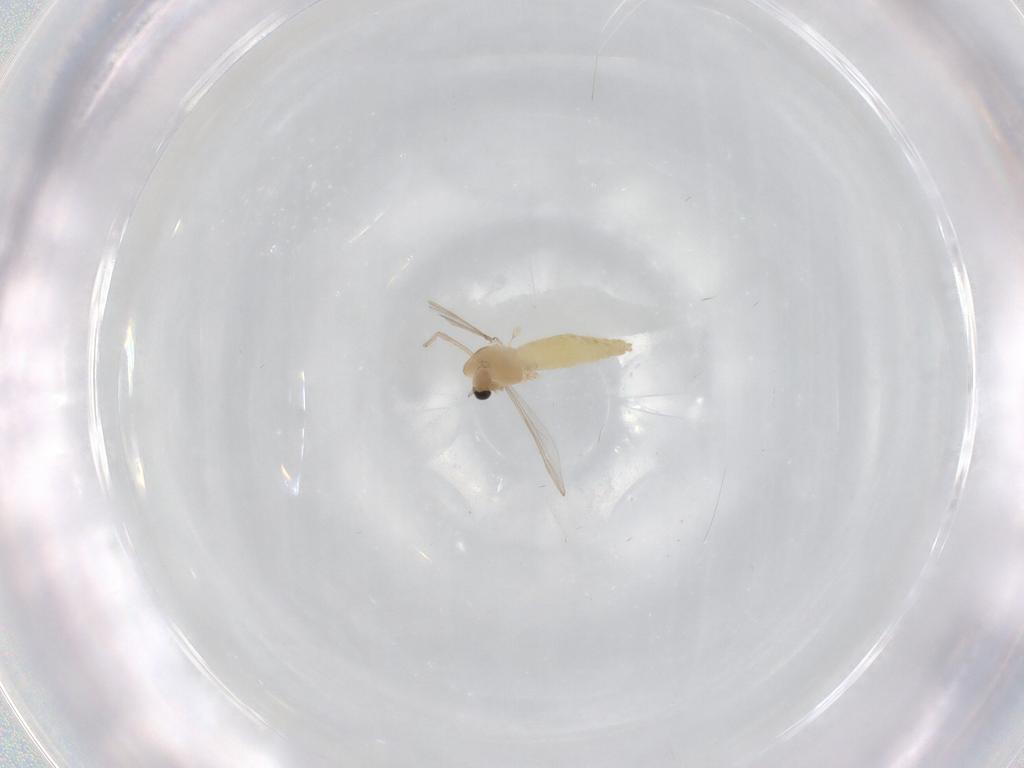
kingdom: Animalia
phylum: Arthropoda
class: Insecta
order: Diptera
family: Chironomidae
